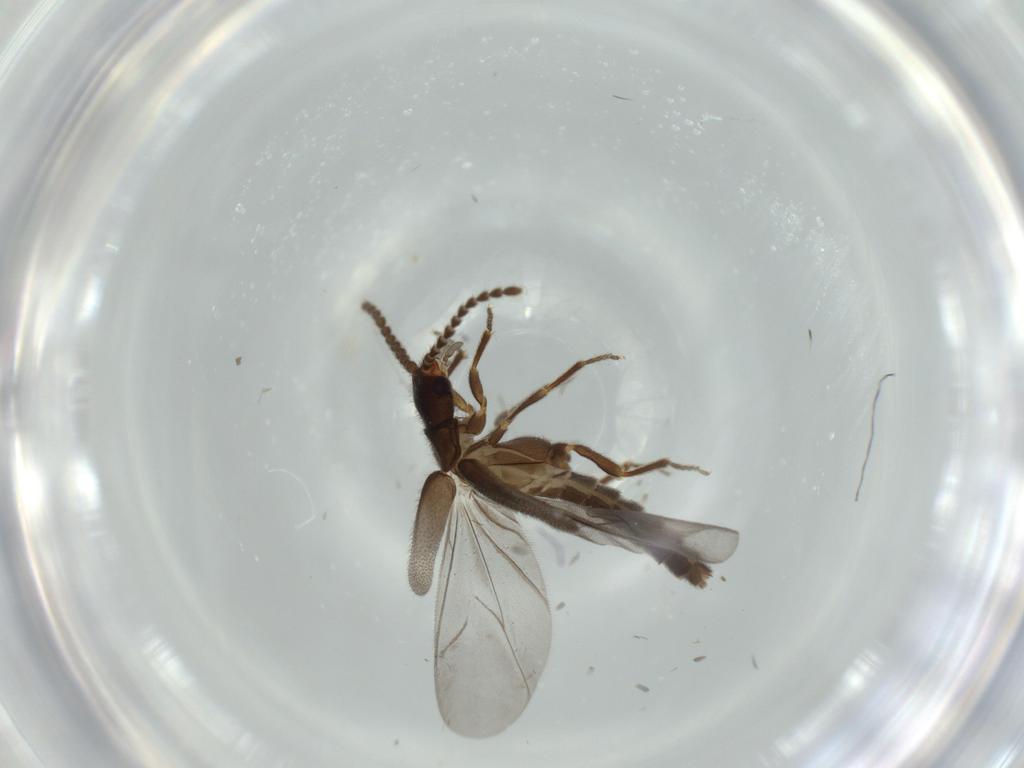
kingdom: Animalia
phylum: Arthropoda
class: Insecta
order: Coleoptera
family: Omethidae
